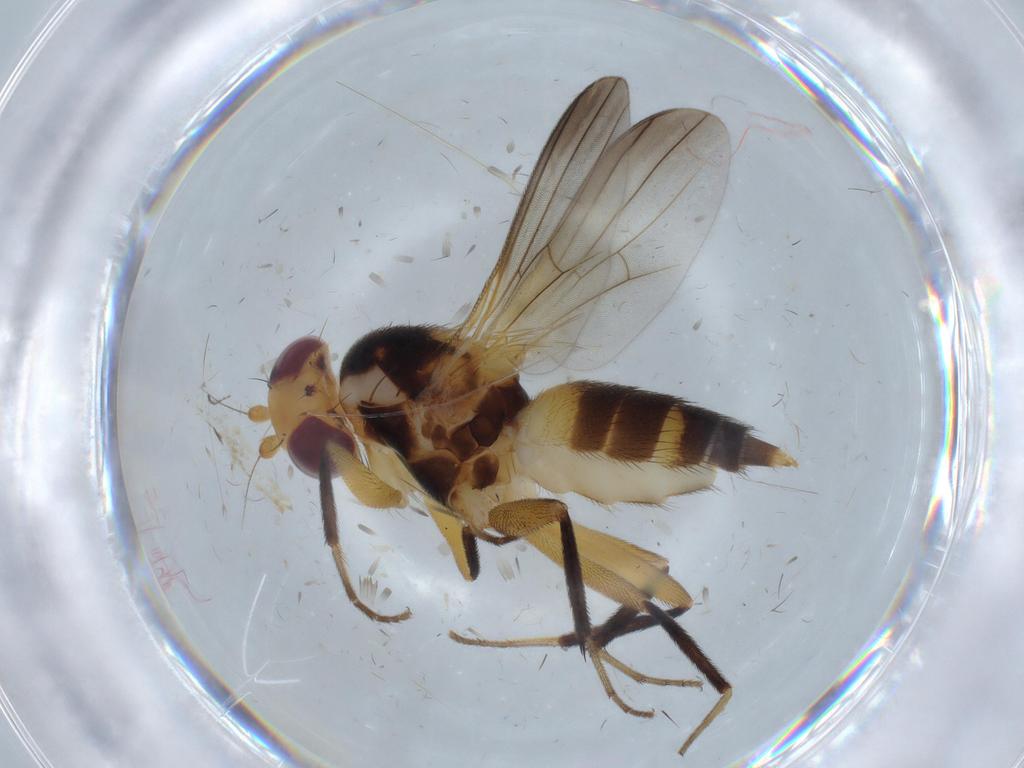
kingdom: Animalia
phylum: Arthropoda
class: Insecta
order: Diptera
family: Heleomyzidae
